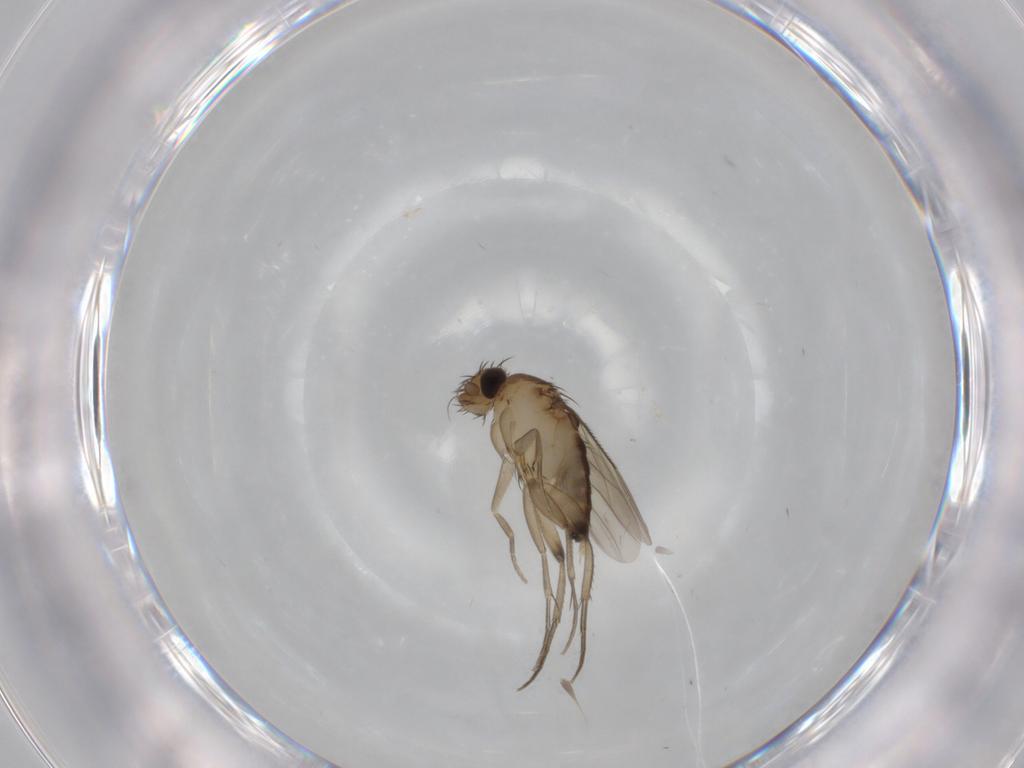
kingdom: Animalia
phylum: Arthropoda
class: Insecta
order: Diptera
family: Phoridae
